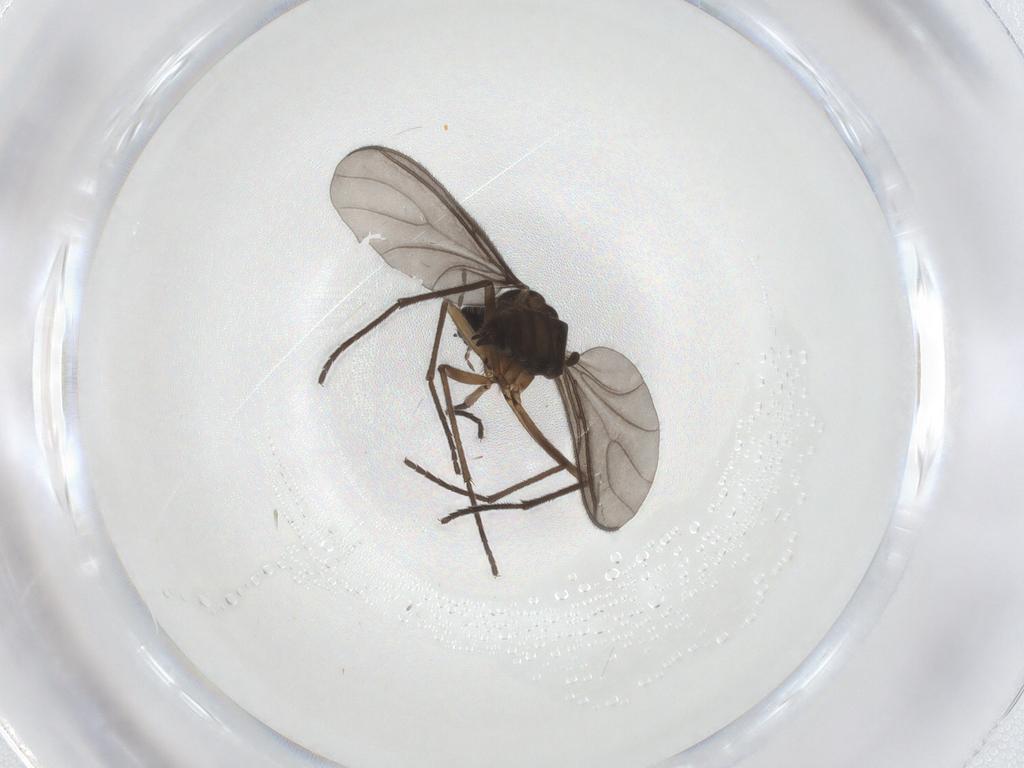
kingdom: Animalia
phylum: Arthropoda
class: Insecta
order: Diptera
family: Sciaridae
